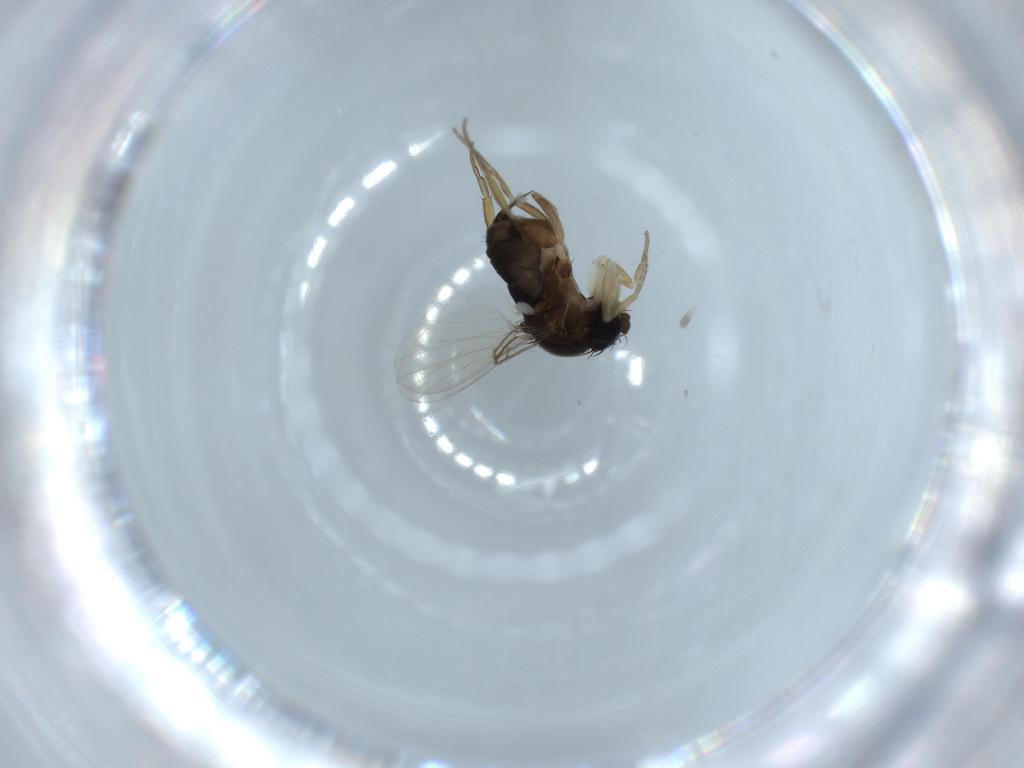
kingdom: Animalia
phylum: Arthropoda
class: Insecta
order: Diptera
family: Phoridae
